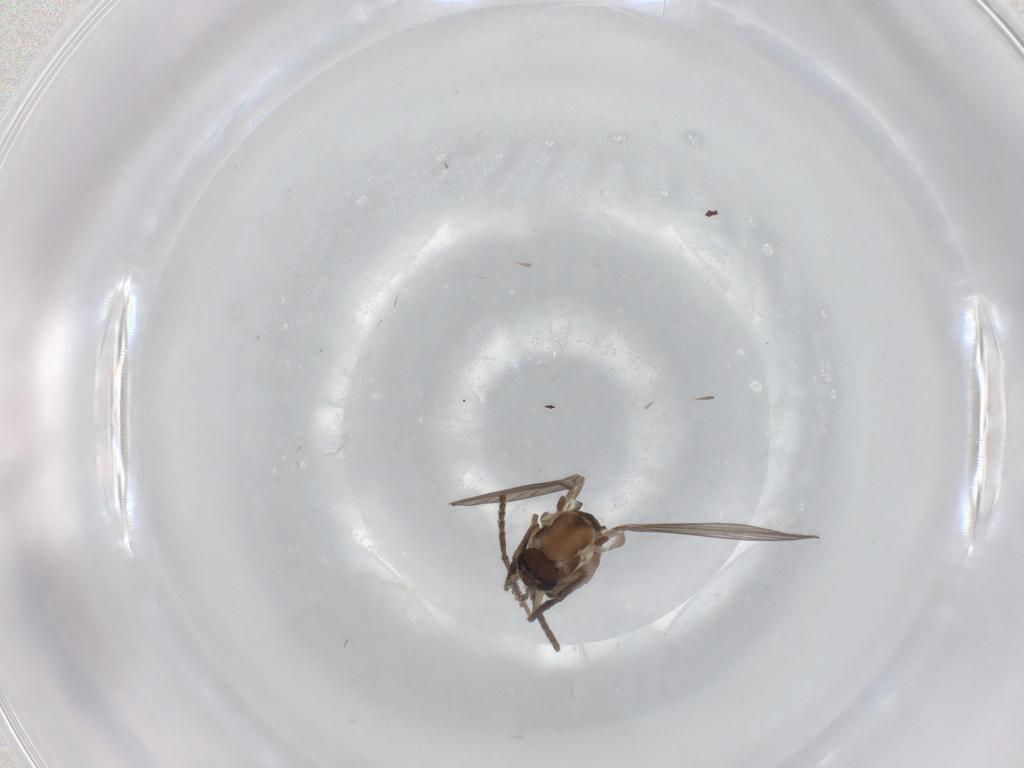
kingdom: Animalia
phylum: Arthropoda
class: Insecta
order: Diptera
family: Psychodidae
